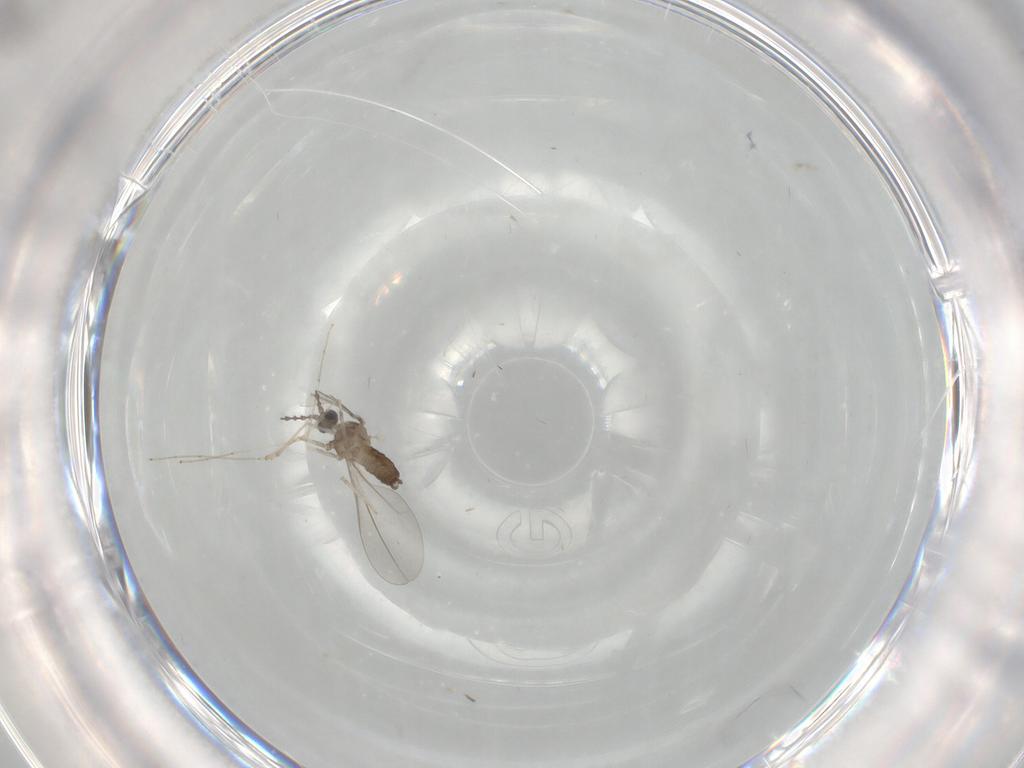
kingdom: Animalia
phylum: Arthropoda
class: Insecta
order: Diptera
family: Cecidomyiidae
